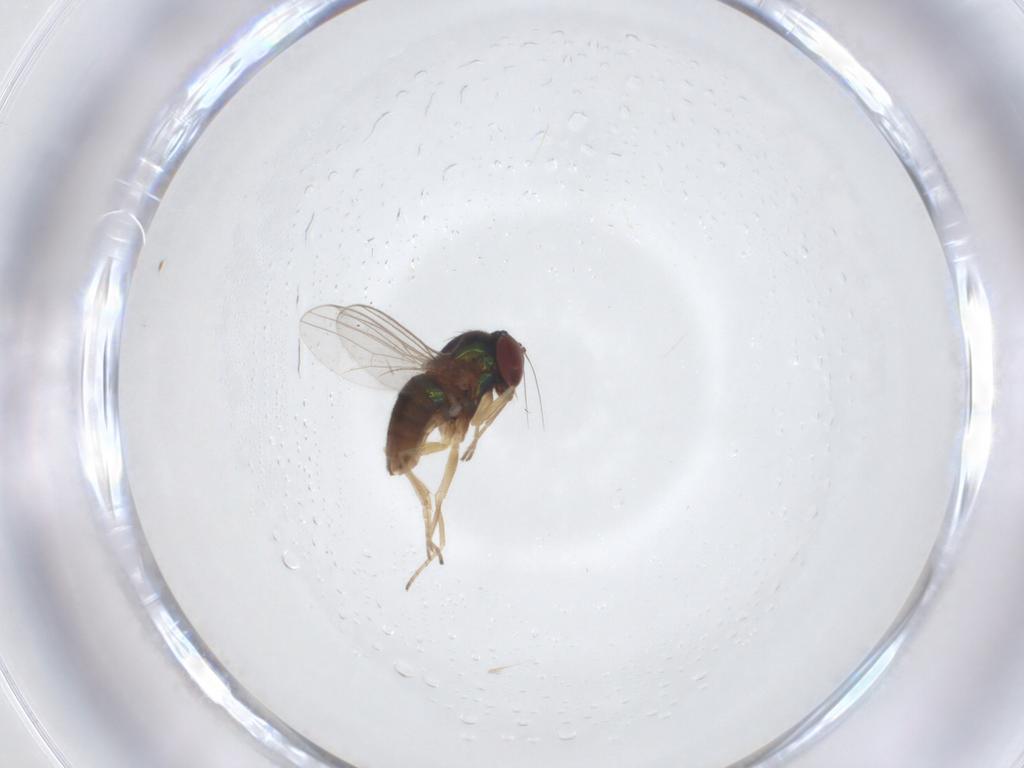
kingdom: Animalia
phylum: Arthropoda
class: Insecta
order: Diptera
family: Dolichopodidae
